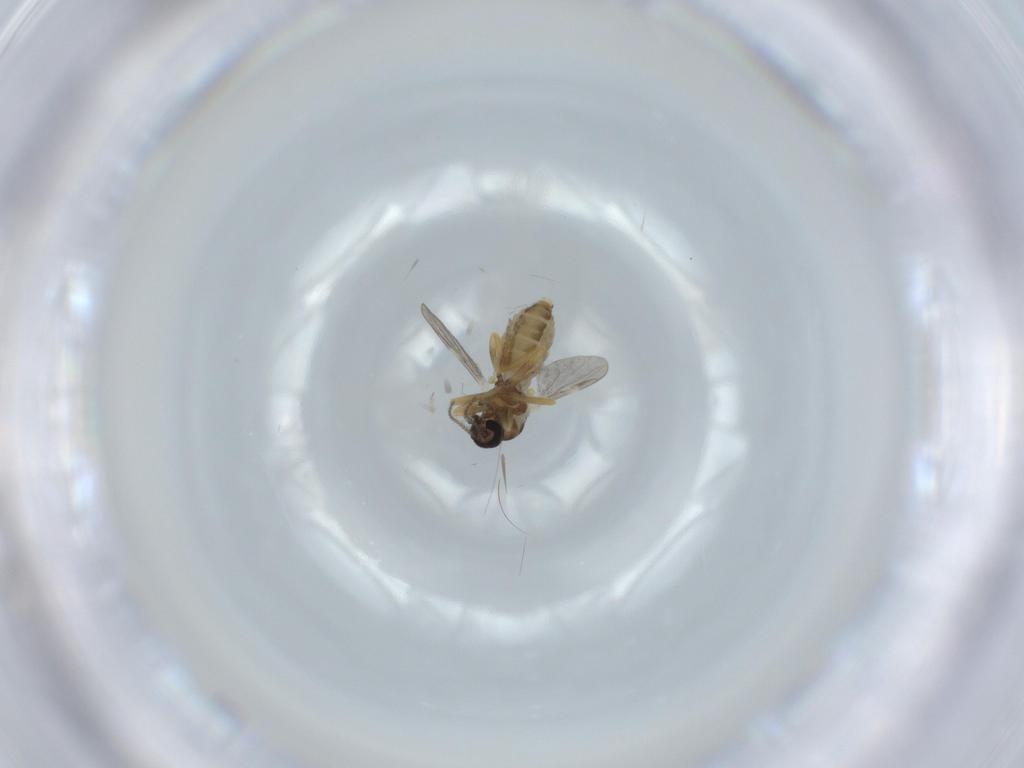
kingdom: Animalia
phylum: Arthropoda
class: Insecta
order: Diptera
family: Ceratopogonidae
